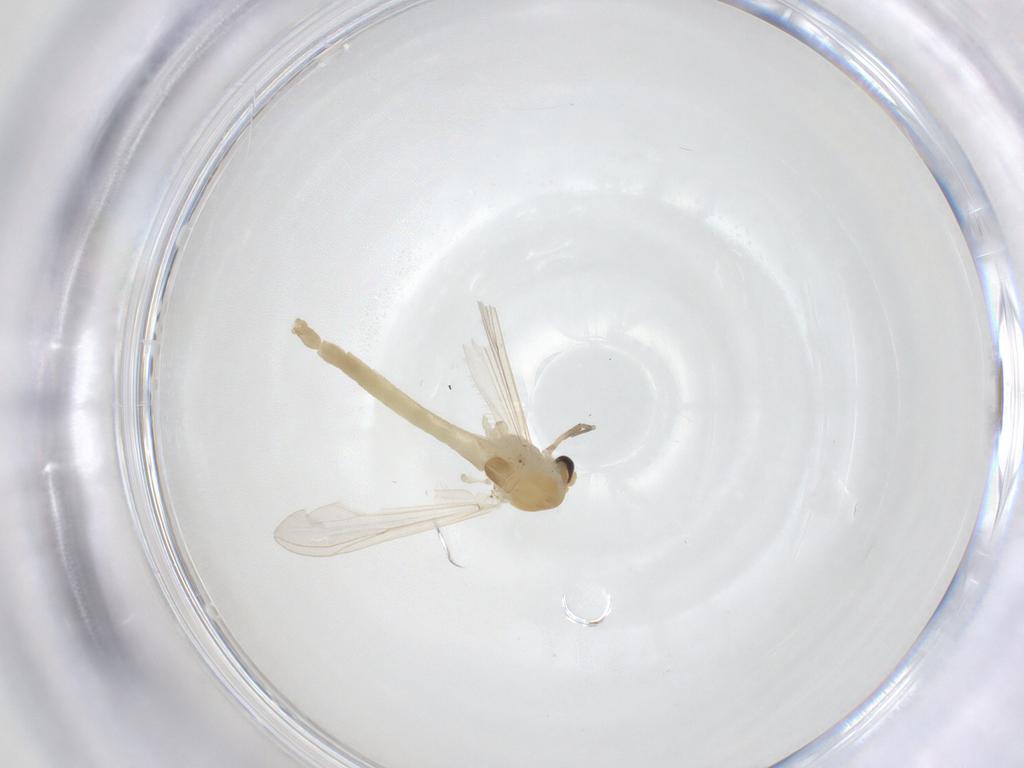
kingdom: Animalia
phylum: Arthropoda
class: Insecta
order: Diptera
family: Chironomidae
